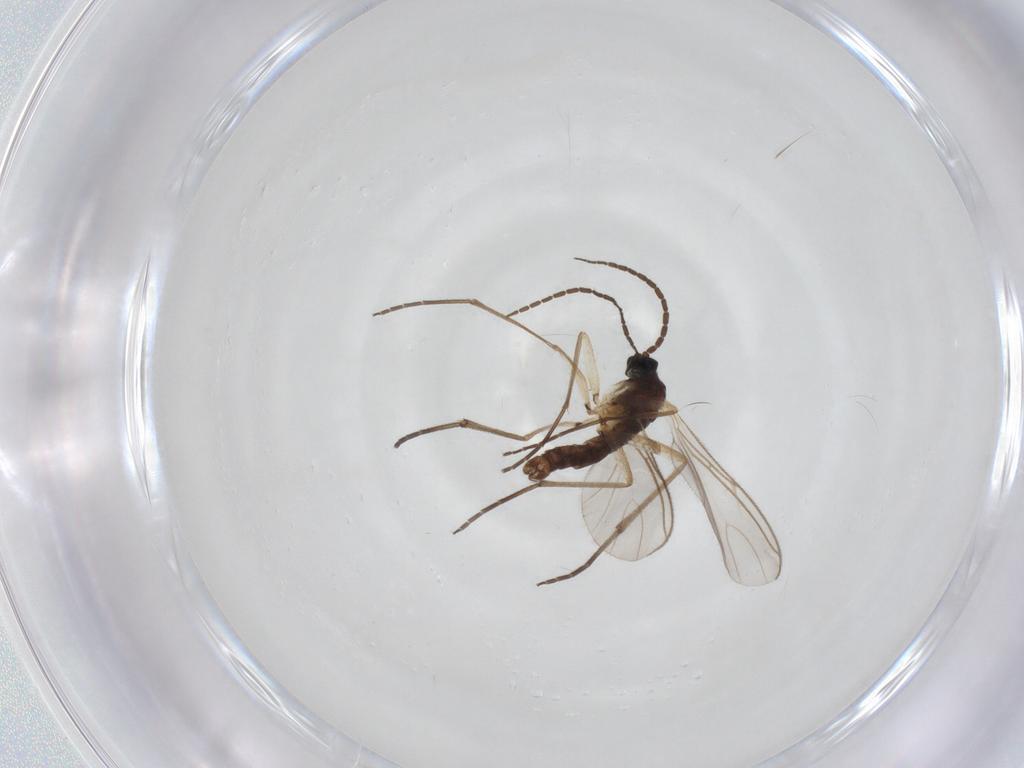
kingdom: Animalia
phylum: Arthropoda
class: Insecta
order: Diptera
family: Sciaridae
